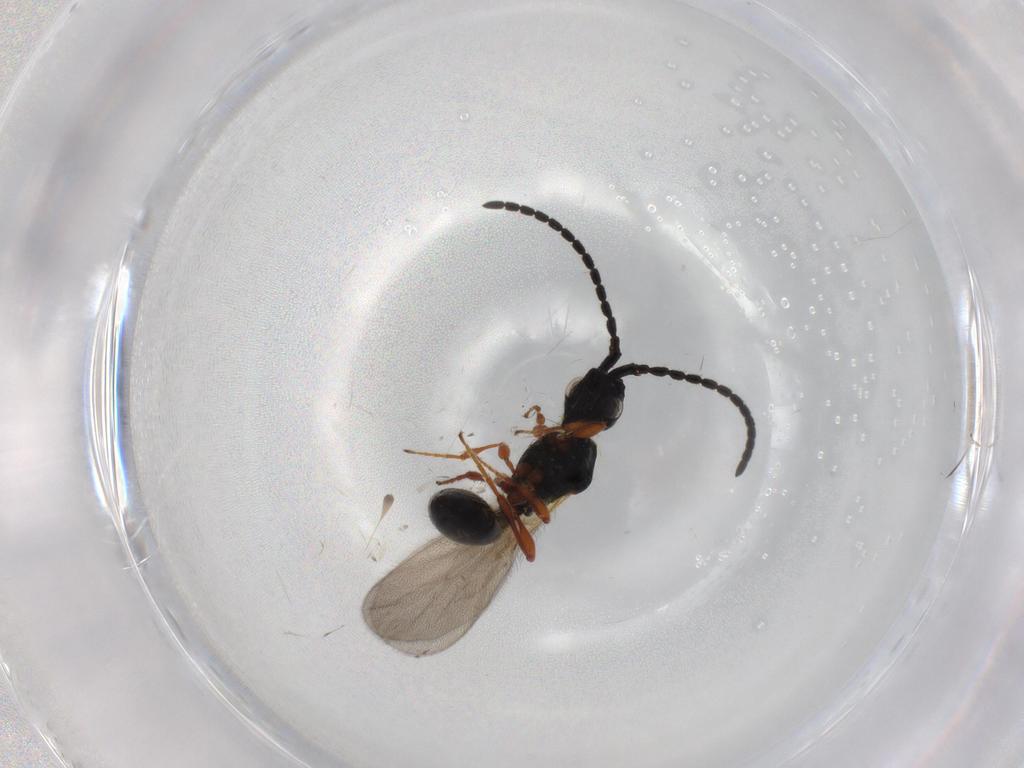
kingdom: Animalia
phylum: Arthropoda
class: Insecta
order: Hymenoptera
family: Diapriidae
